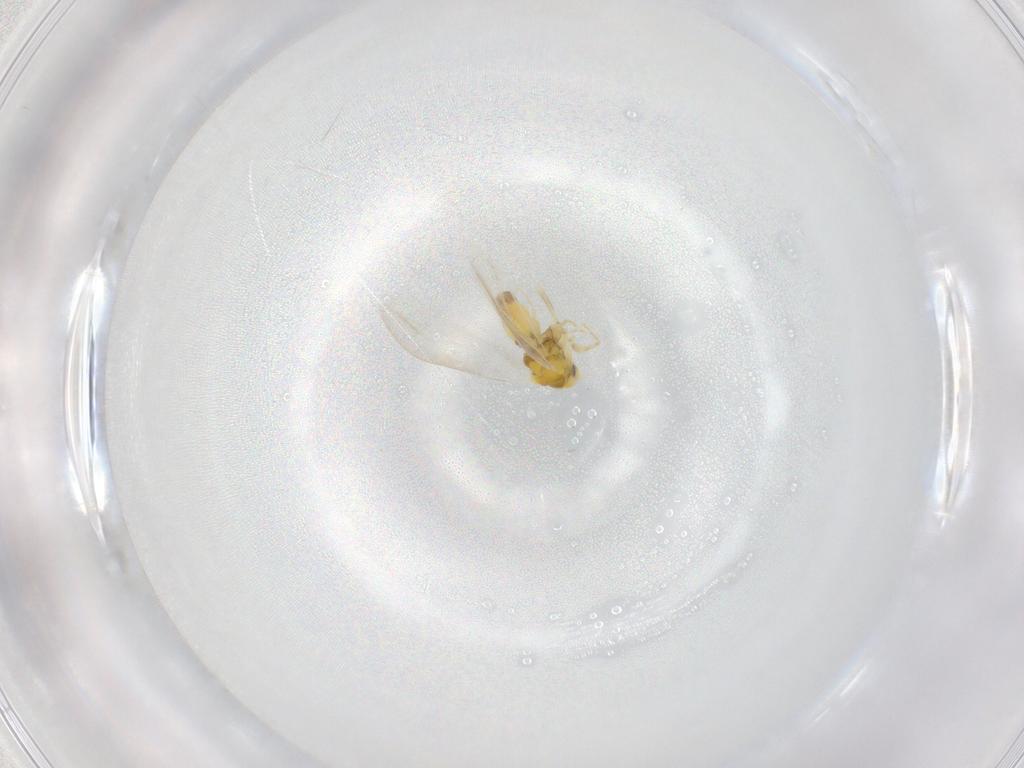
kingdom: Animalia
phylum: Arthropoda
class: Insecta
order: Hemiptera
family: Aleyrodidae
